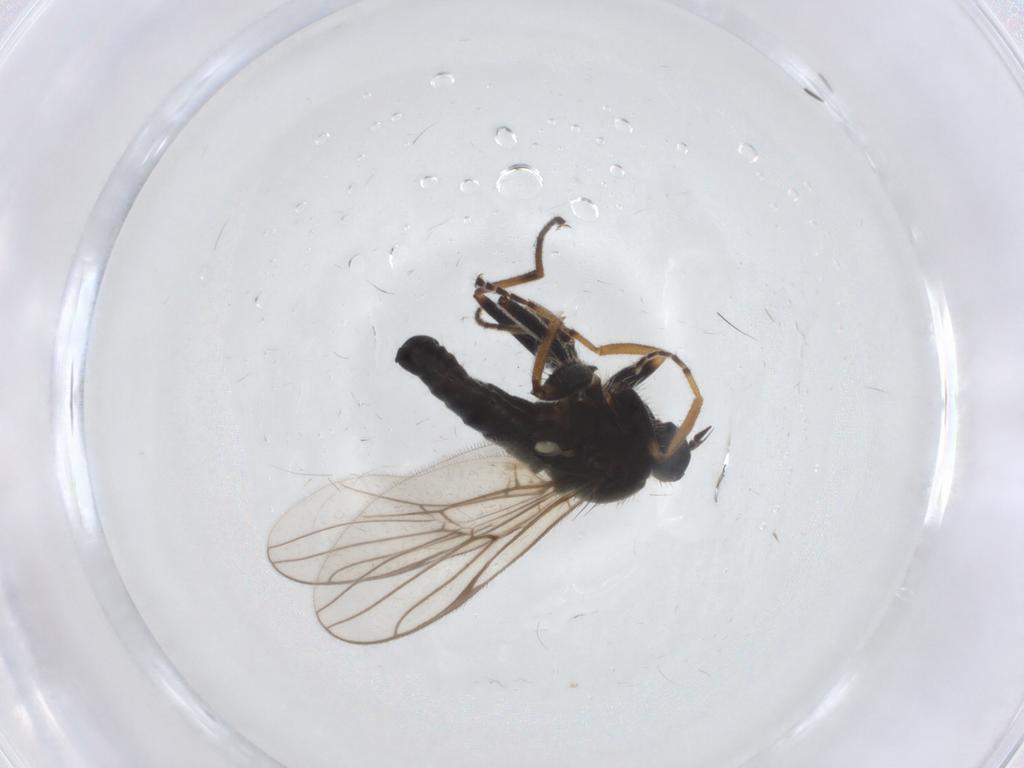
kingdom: Animalia
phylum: Arthropoda
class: Insecta
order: Diptera
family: Hybotidae
